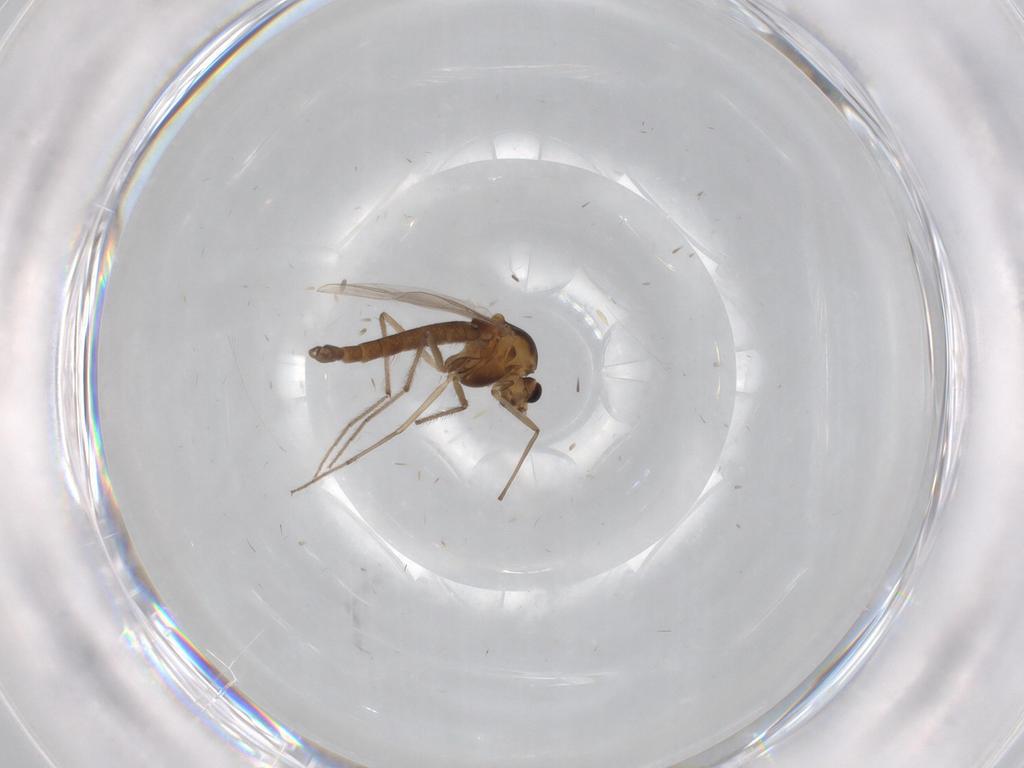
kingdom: Animalia
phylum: Arthropoda
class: Insecta
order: Diptera
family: Chironomidae
